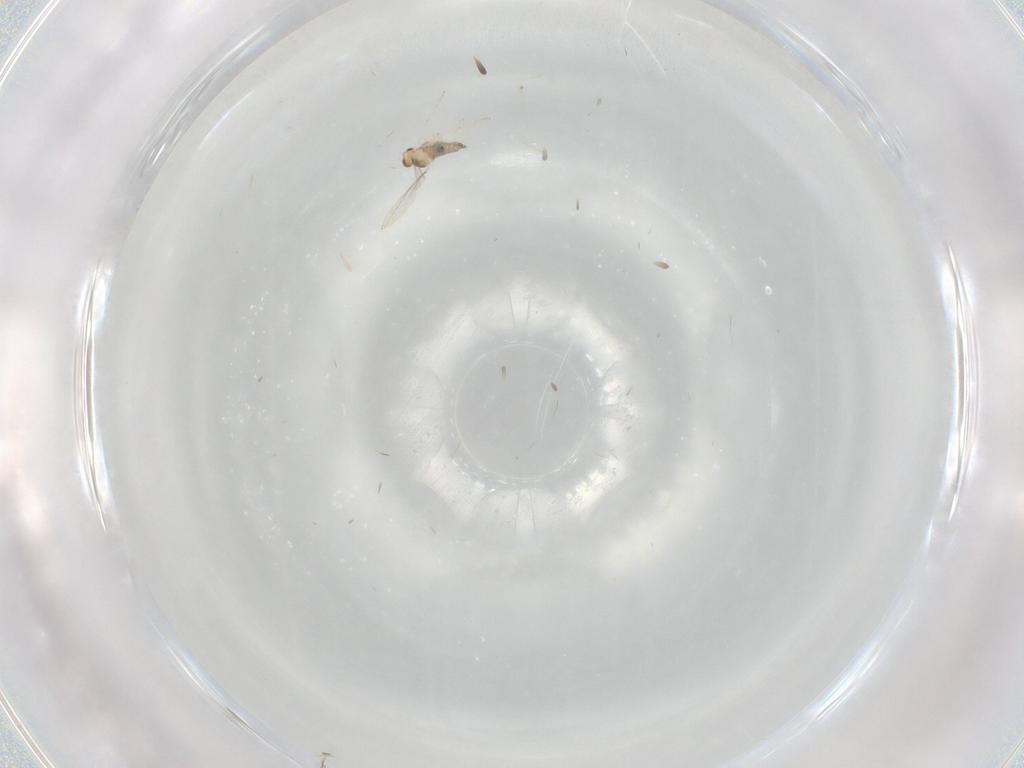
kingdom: Animalia
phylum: Arthropoda
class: Insecta
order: Diptera
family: Cecidomyiidae
